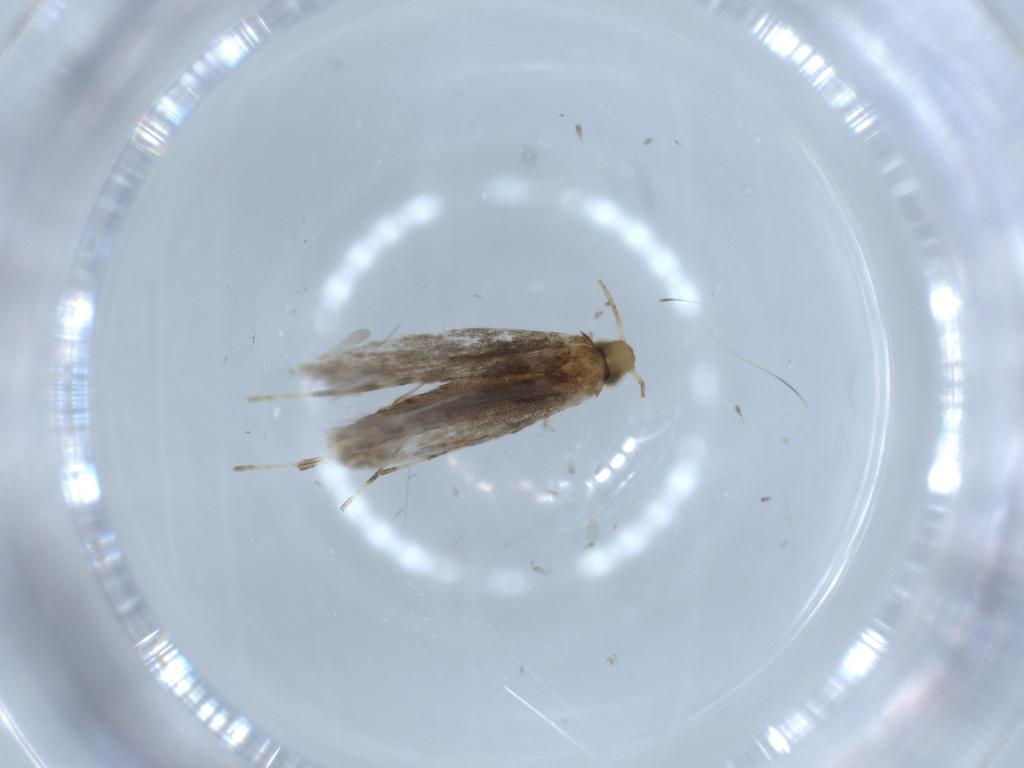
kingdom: Animalia
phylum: Arthropoda
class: Insecta
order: Lepidoptera
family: Gracillariidae
